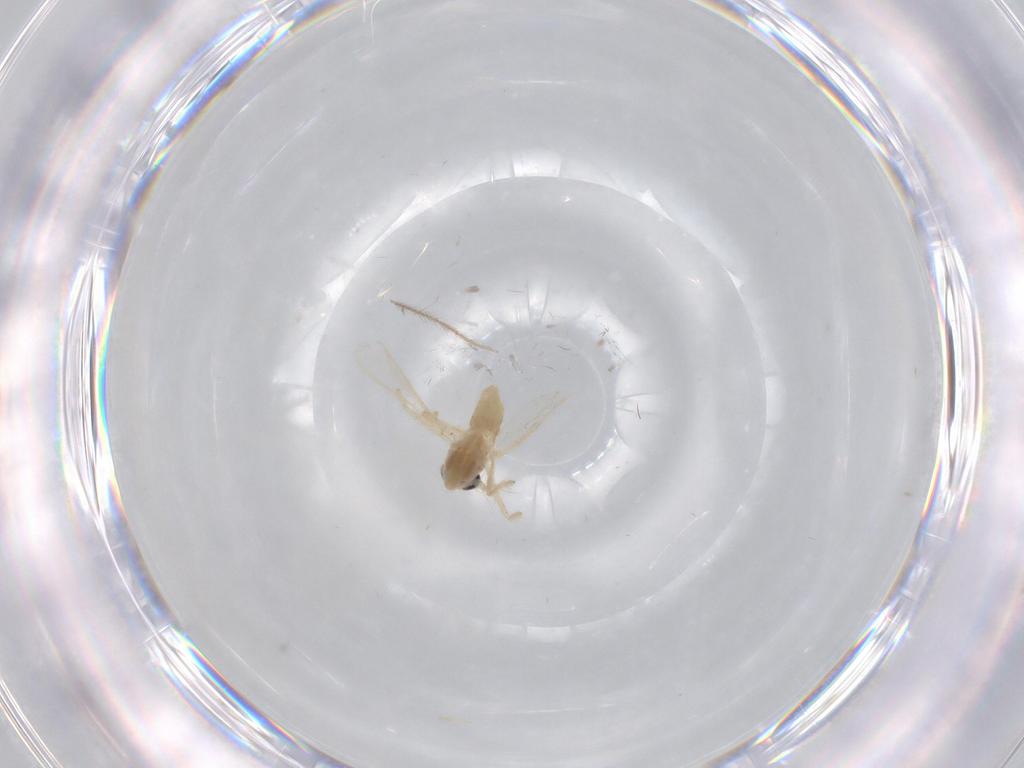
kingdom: Animalia
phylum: Arthropoda
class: Insecta
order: Diptera
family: Chironomidae
